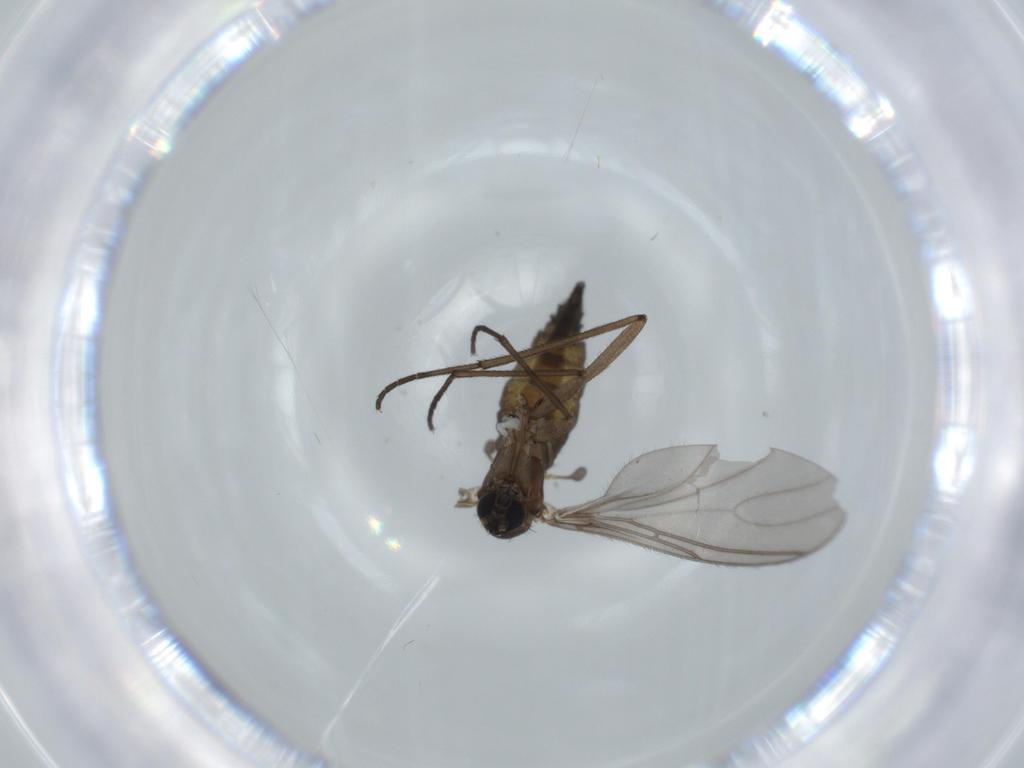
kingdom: Animalia
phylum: Arthropoda
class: Insecta
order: Diptera
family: Sciaridae
